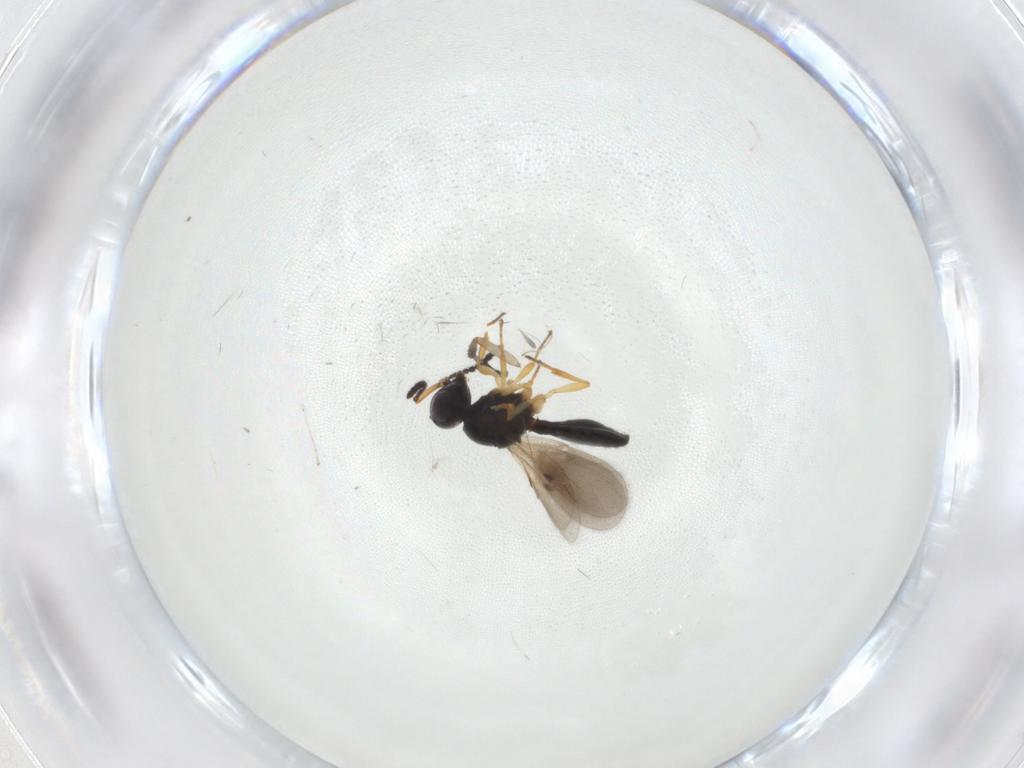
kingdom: Animalia
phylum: Arthropoda
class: Insecta
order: Hymenoptera
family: Scelionidae
